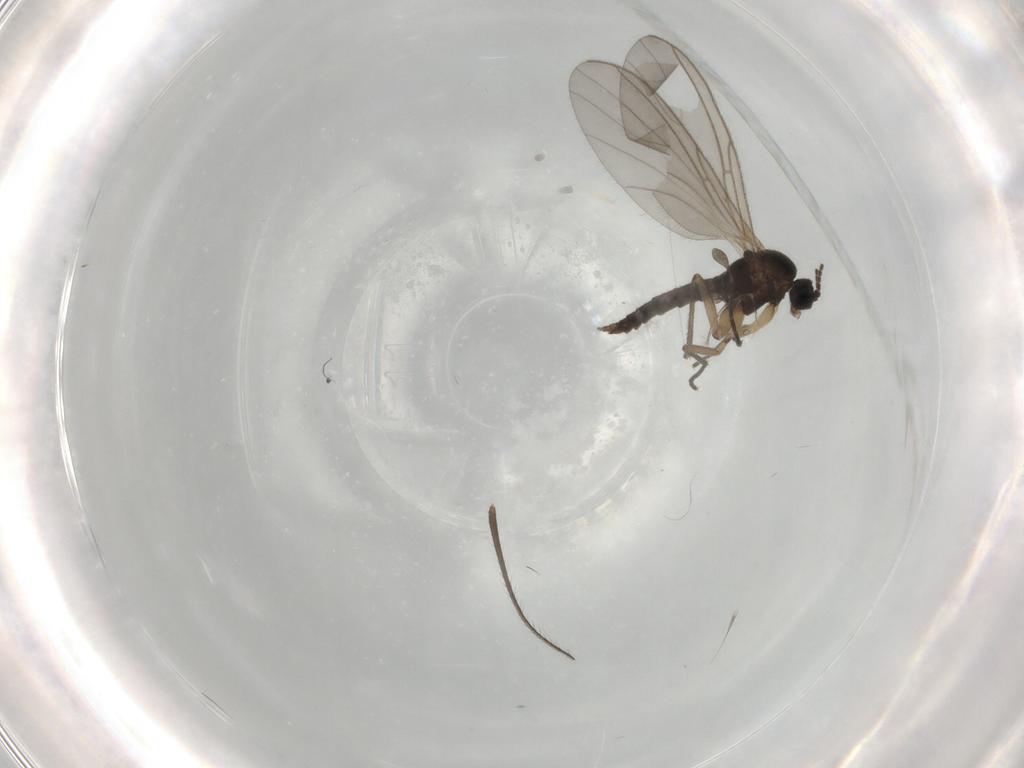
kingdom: Animalia
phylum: Arthropoda
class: Insecta
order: Diptera
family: Sciaridae
